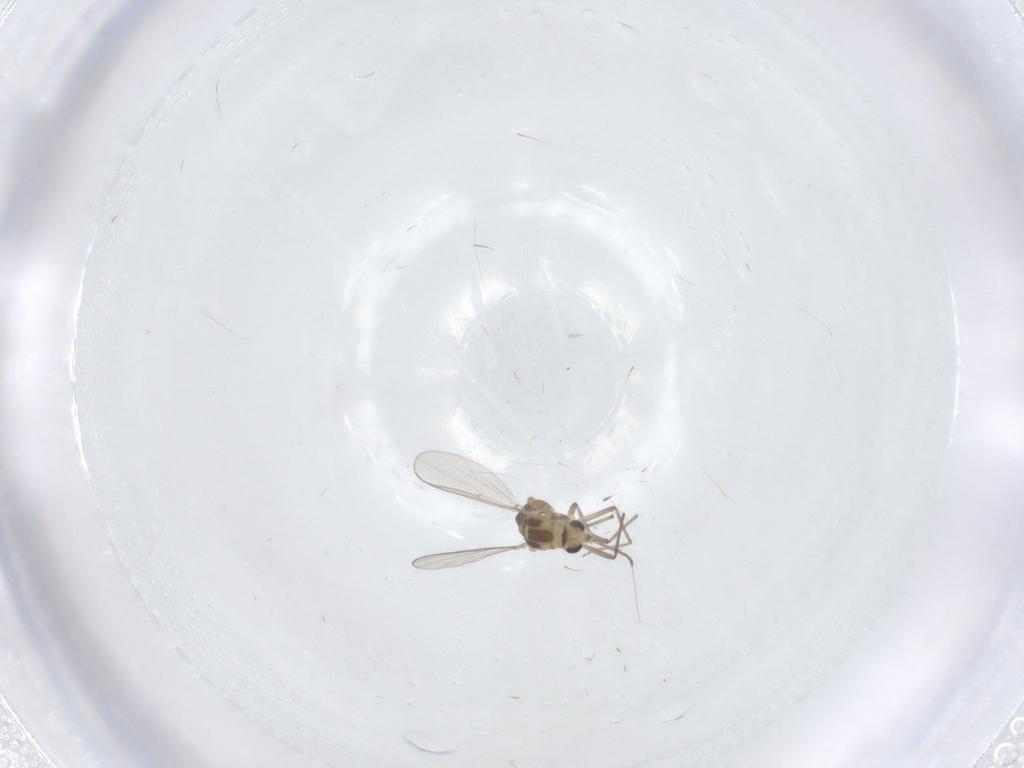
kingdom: Animalia
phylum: Arthropoda
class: Insecta
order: Diptera
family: Chironomidae
